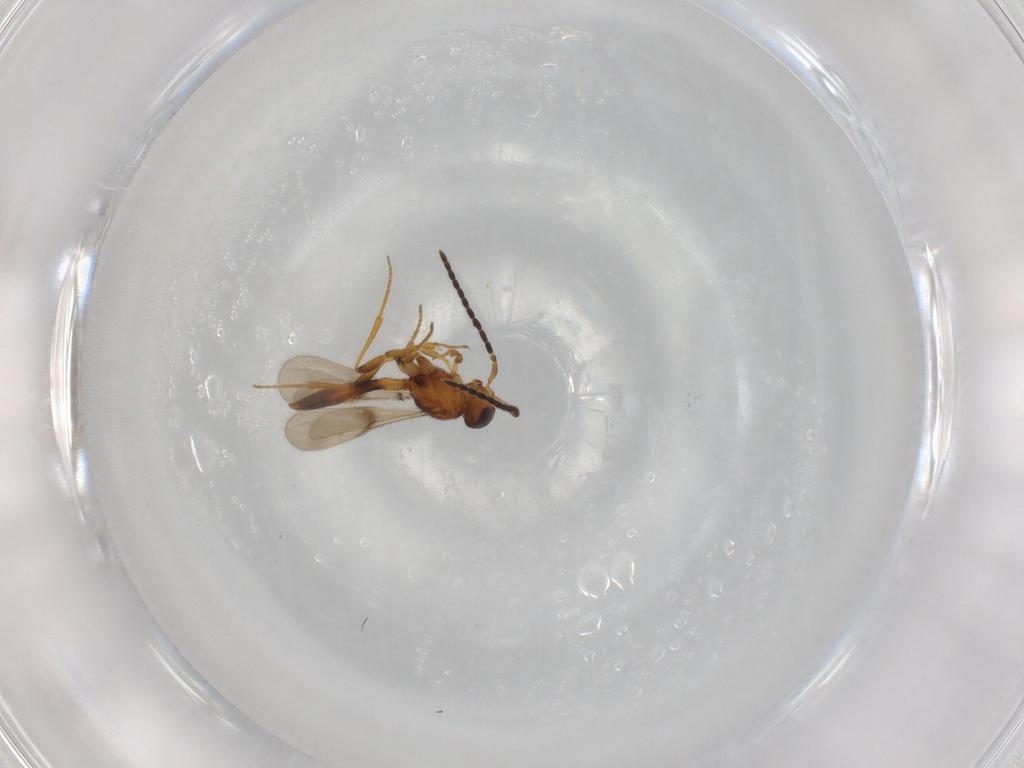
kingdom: Animalia
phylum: Arthropoda
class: Insecta
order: Hymenoptera
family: Scelionidae
